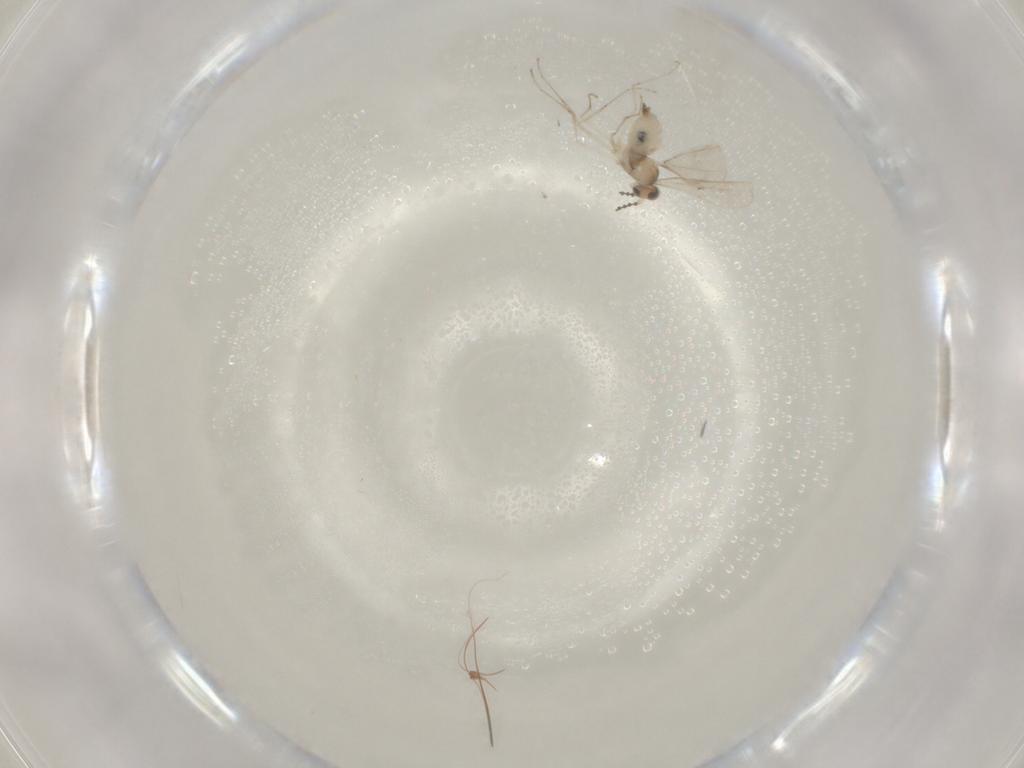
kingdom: Animalia
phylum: Arthropoda
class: Insecta
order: Diptera
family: Cecidomyiidae
